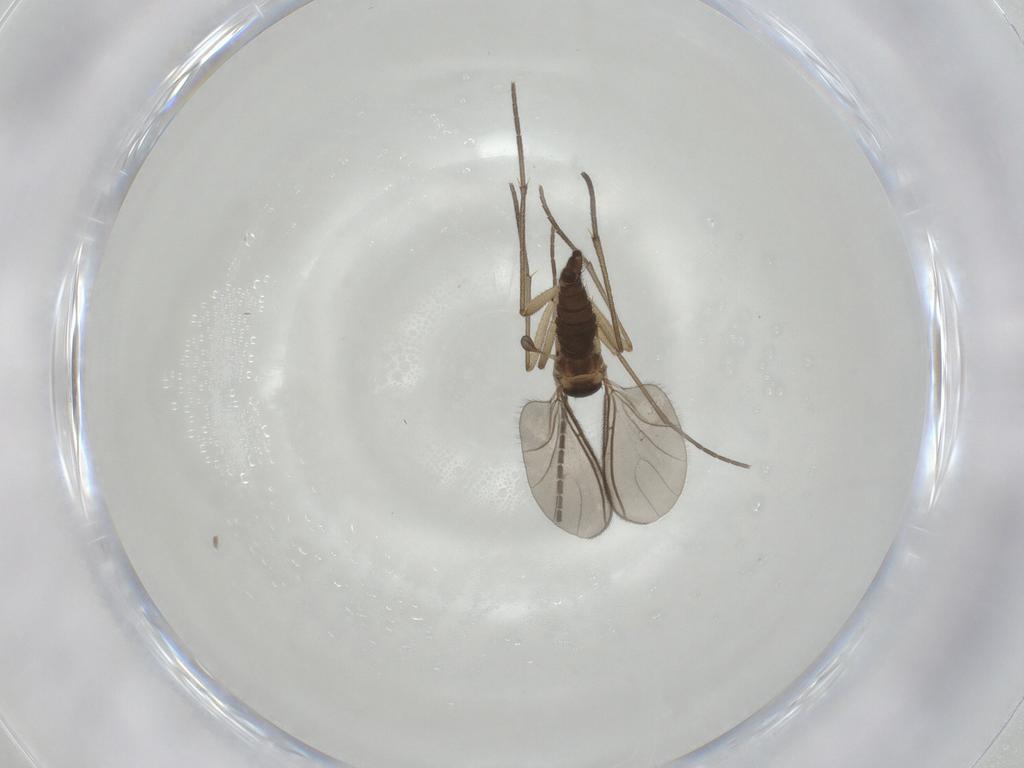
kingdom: Animalia
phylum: Arthropoda
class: Insecta
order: Diptera
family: Sciaridae
